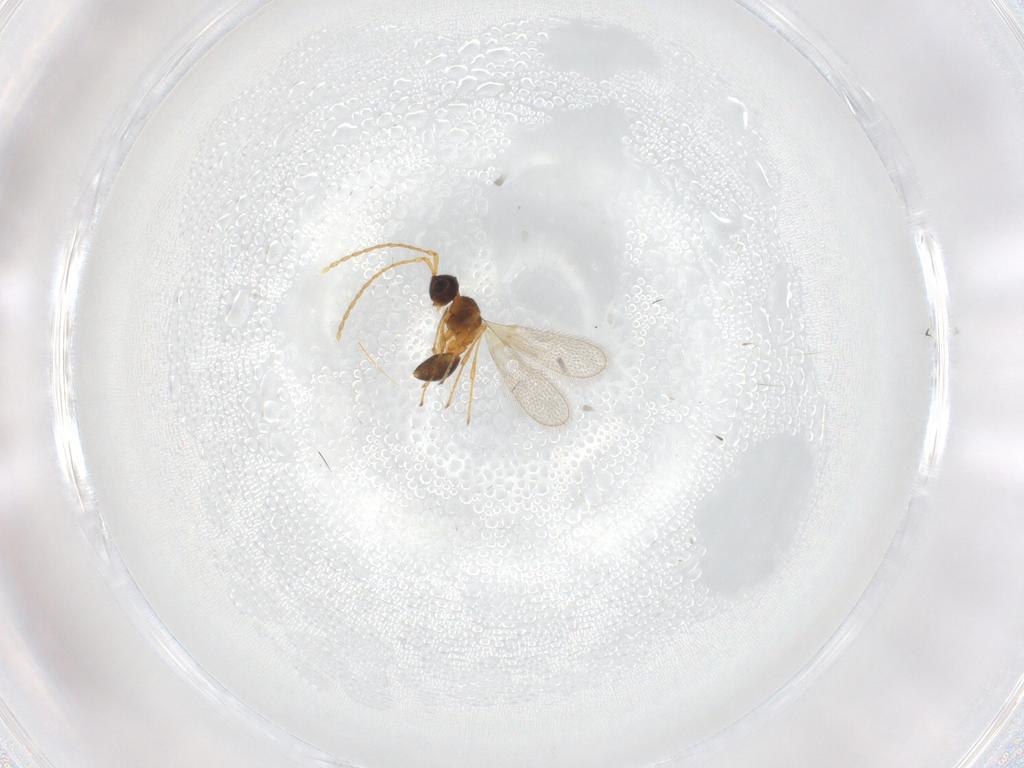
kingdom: Animalia
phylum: Arthropoda
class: Insecta
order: Hymenoptera
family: Diapriidae
